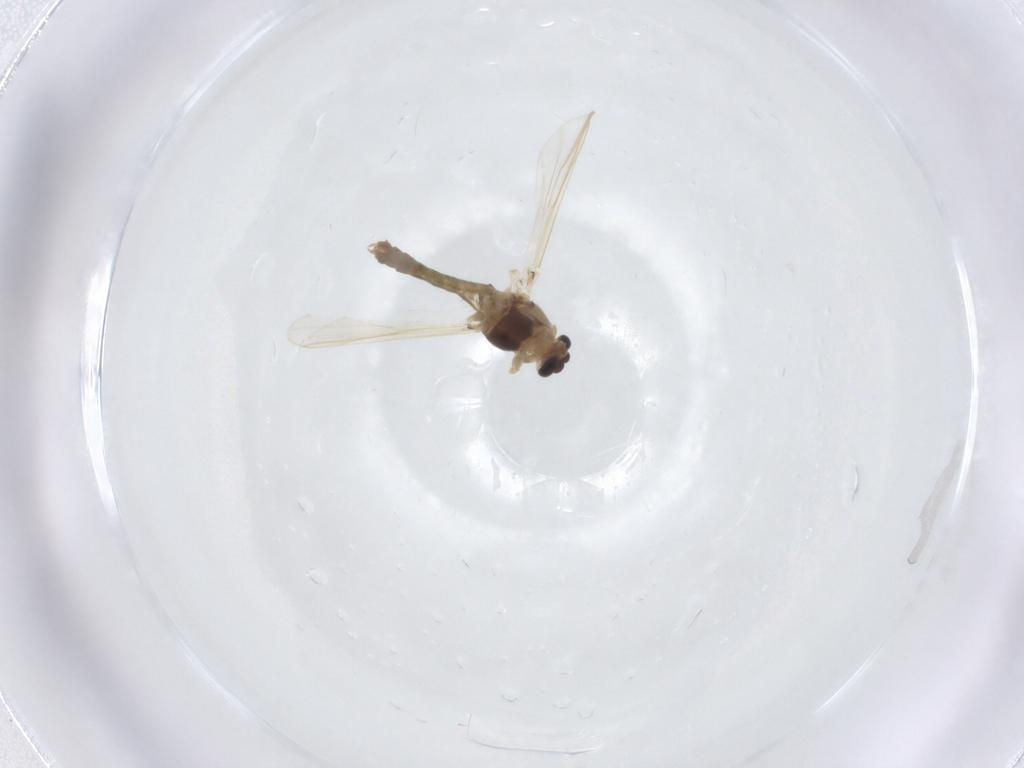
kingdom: Animalia
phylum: Arthropoda
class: Insecta
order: Diptera
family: Chironomidae
